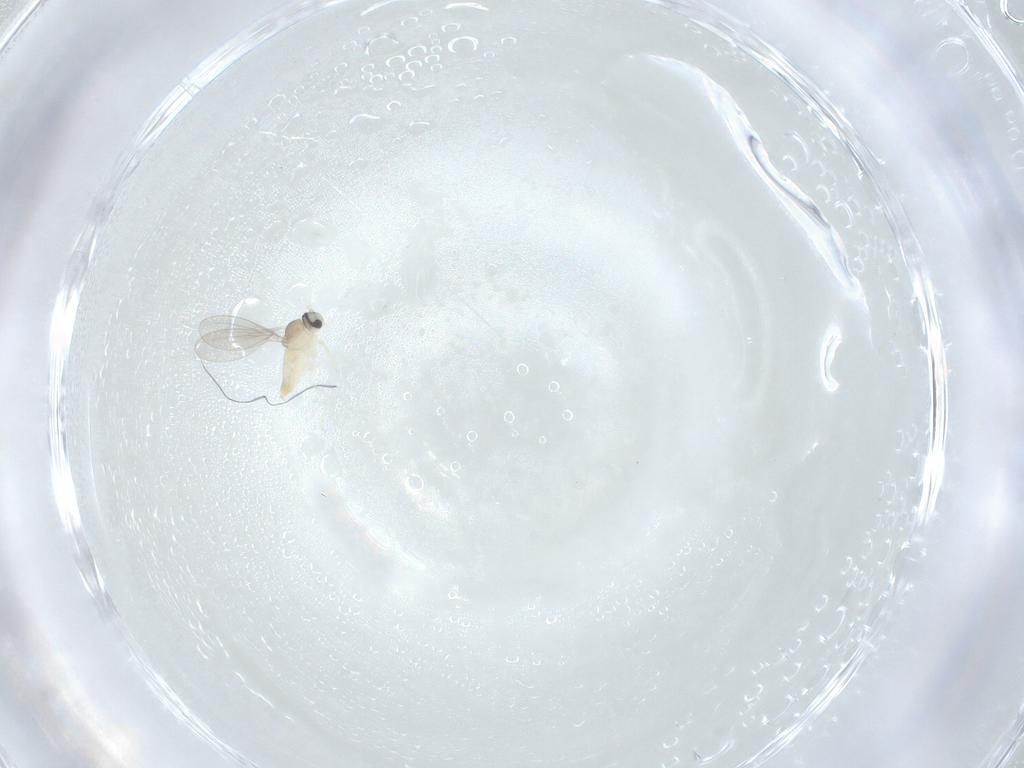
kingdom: Animalia
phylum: Arthropoda
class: Insecta
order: Diptera
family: Cecidomyiidae
